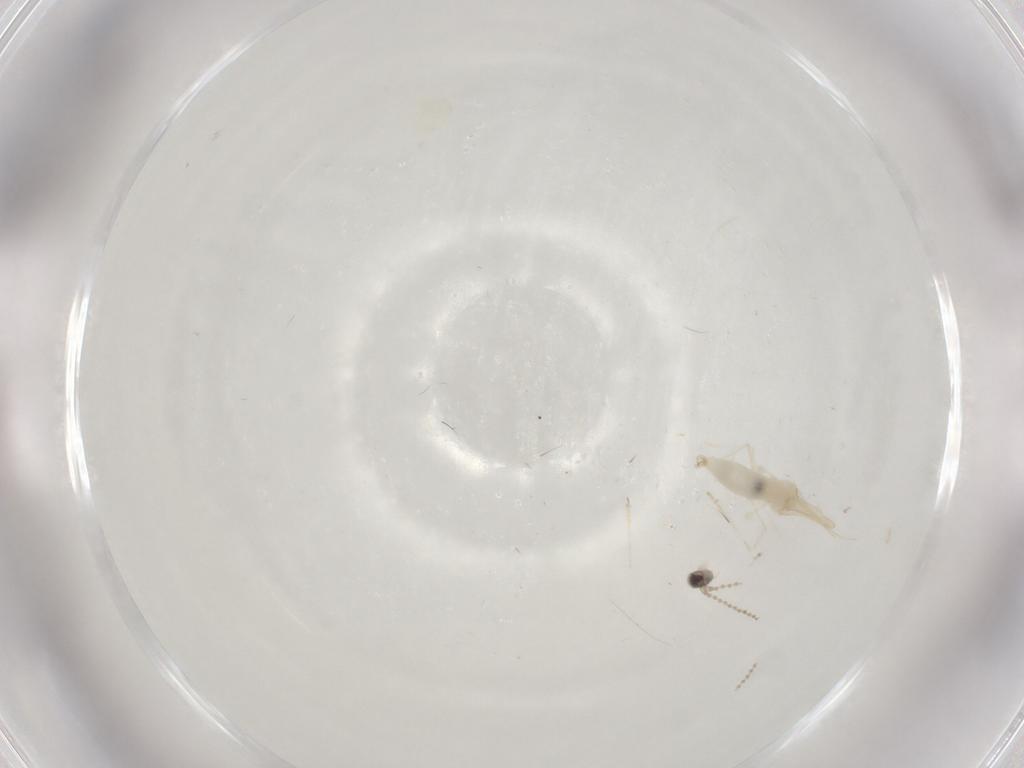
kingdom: Animalia
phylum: Arthropoda
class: Insecta
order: Diptera
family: Cecidomyiidae
